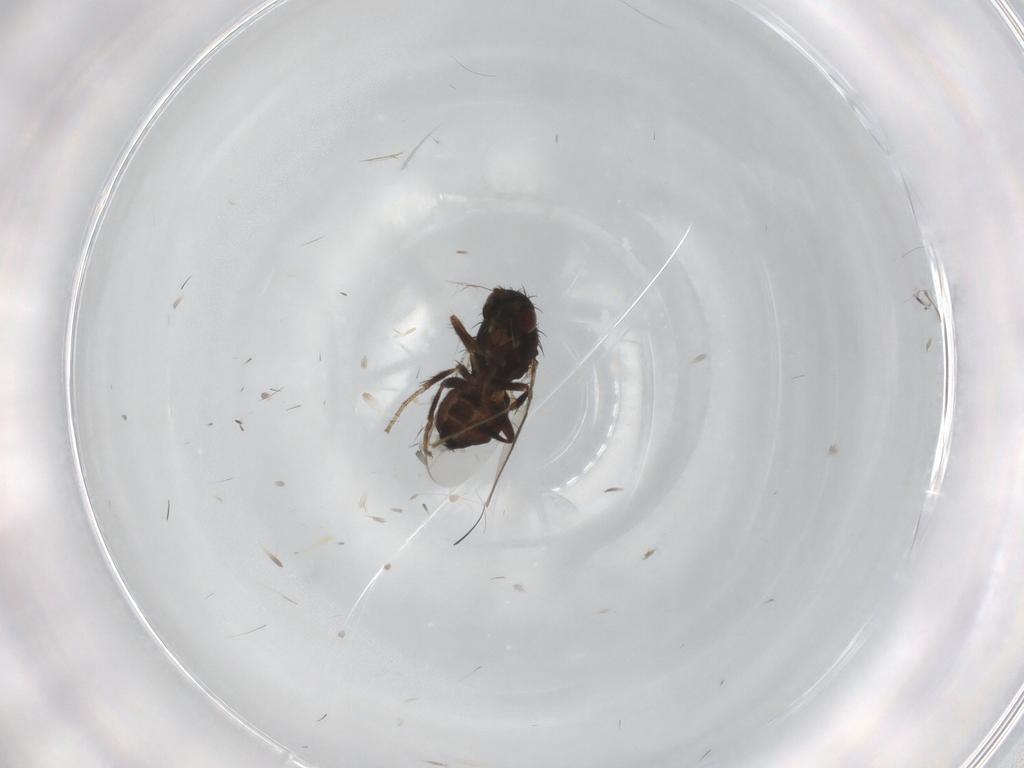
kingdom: Animalia
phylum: Arthropoda
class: Insecta
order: Diptera
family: Sphaeroceridae
